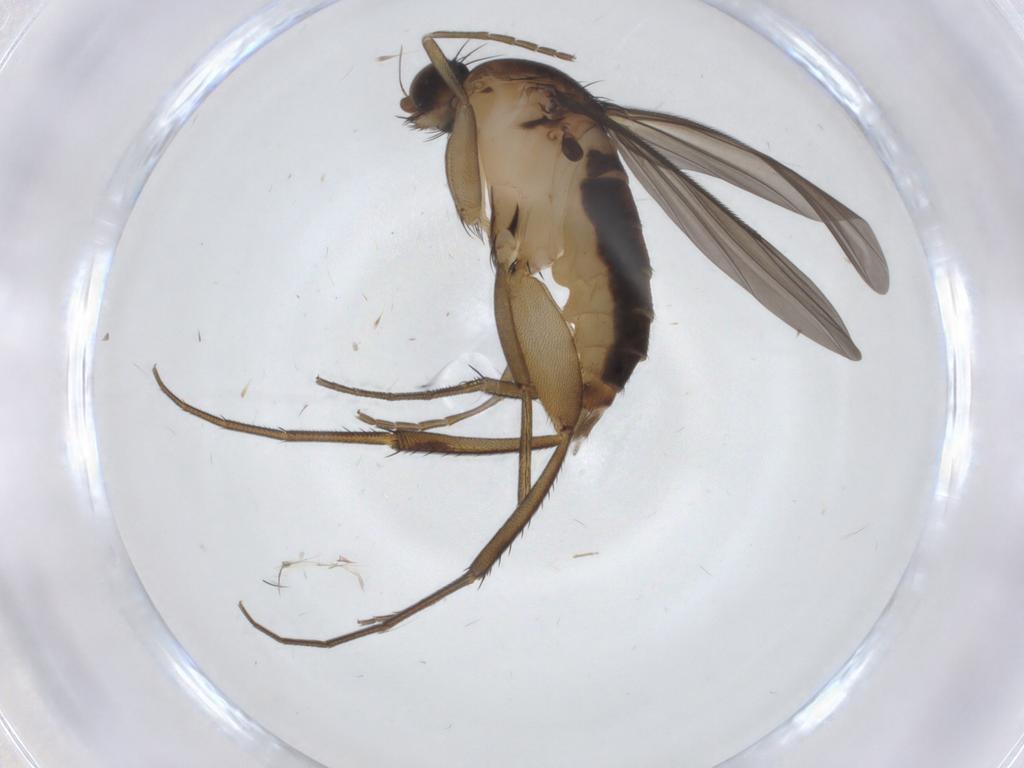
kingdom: Animalia
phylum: Arthropoda
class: Insecta
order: Diptera
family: Phoridae
